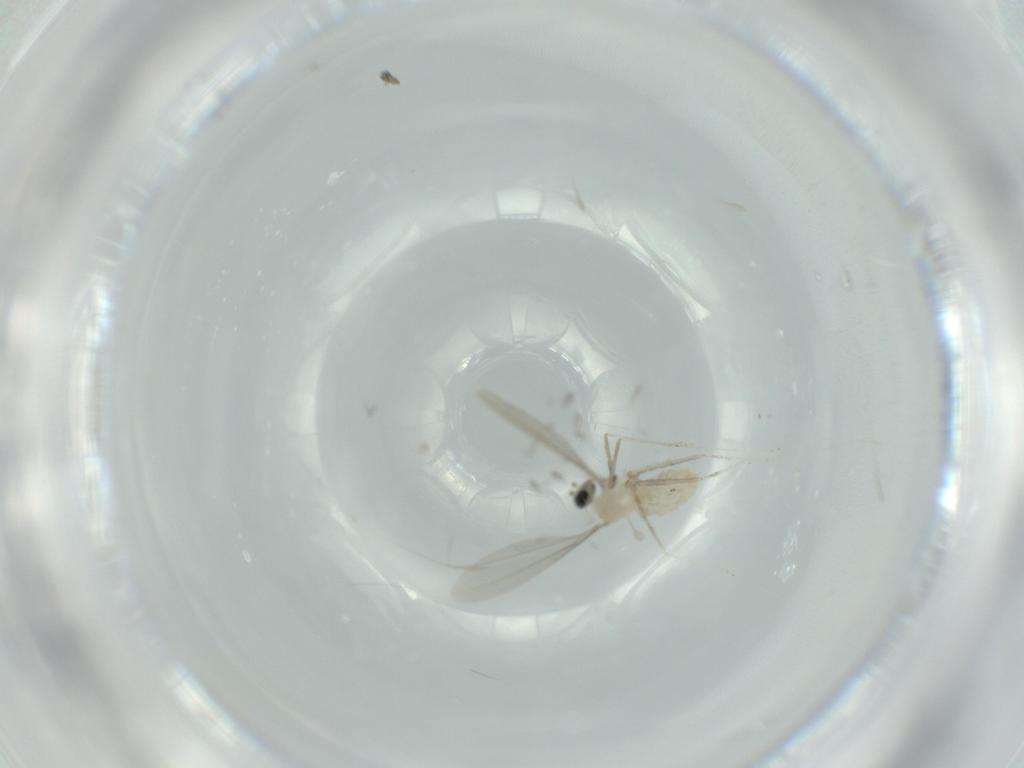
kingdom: Animalia
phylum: Arthropoda
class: Insecta
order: Diptera
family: Cecidomyiidae
